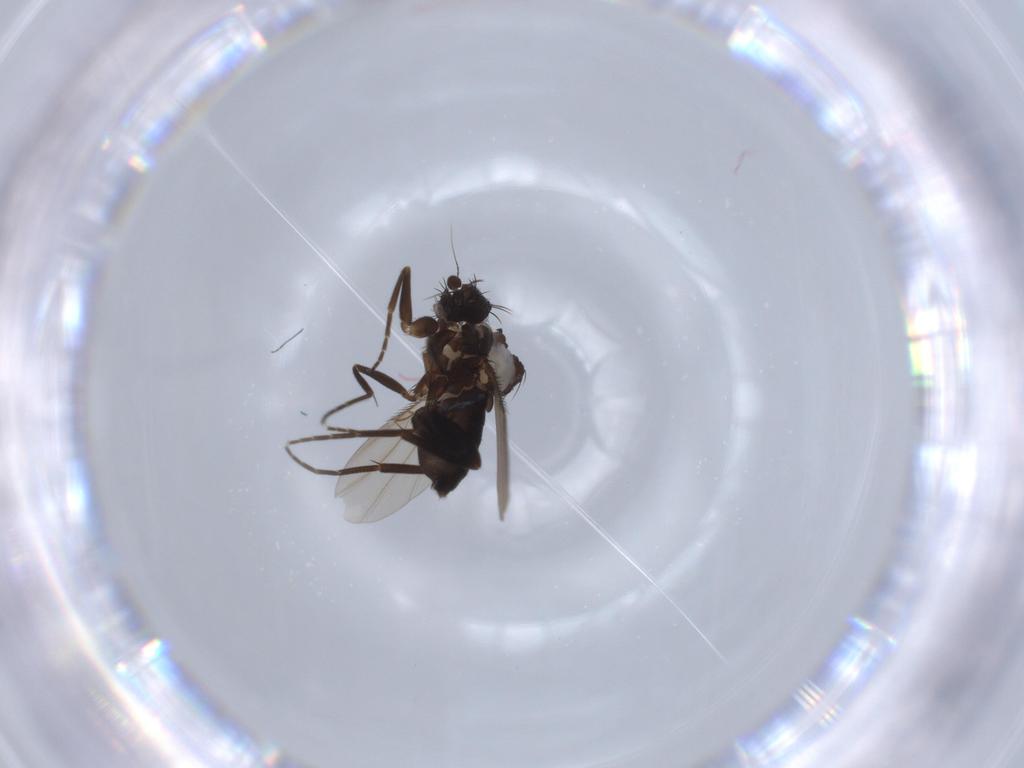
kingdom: Animalia
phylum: Arthropoda
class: Insecta
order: Diptera
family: Phoridae
